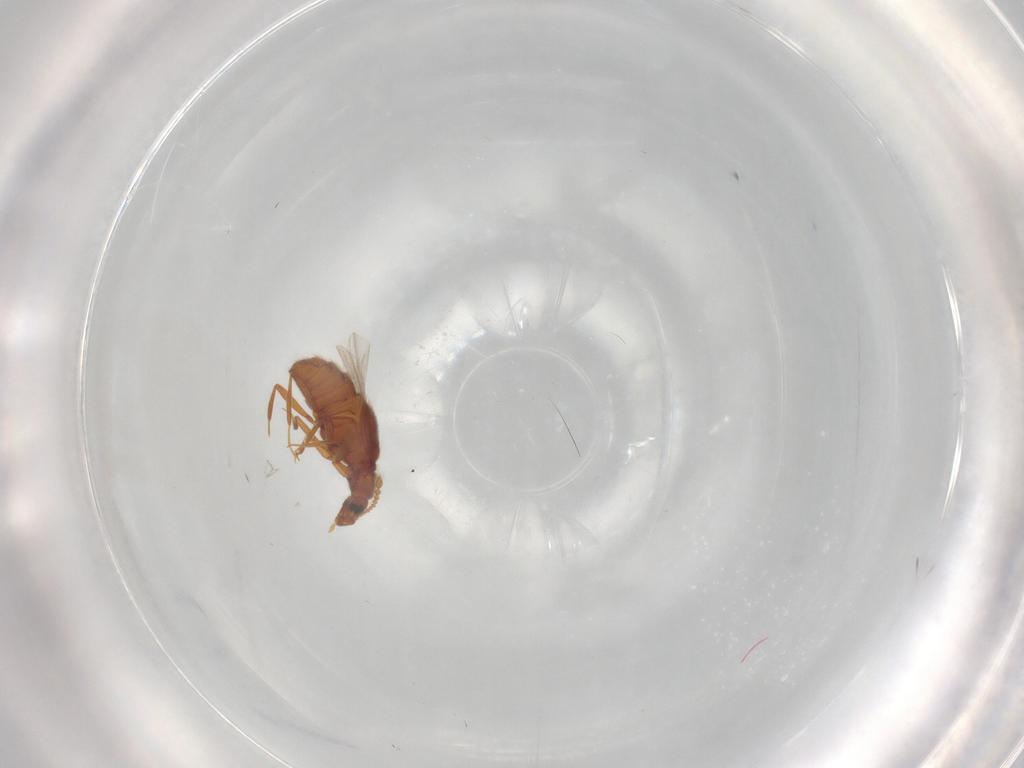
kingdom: Animalia
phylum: Arthropoda
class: Insecta
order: Coleoptera
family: Staphylinidae
